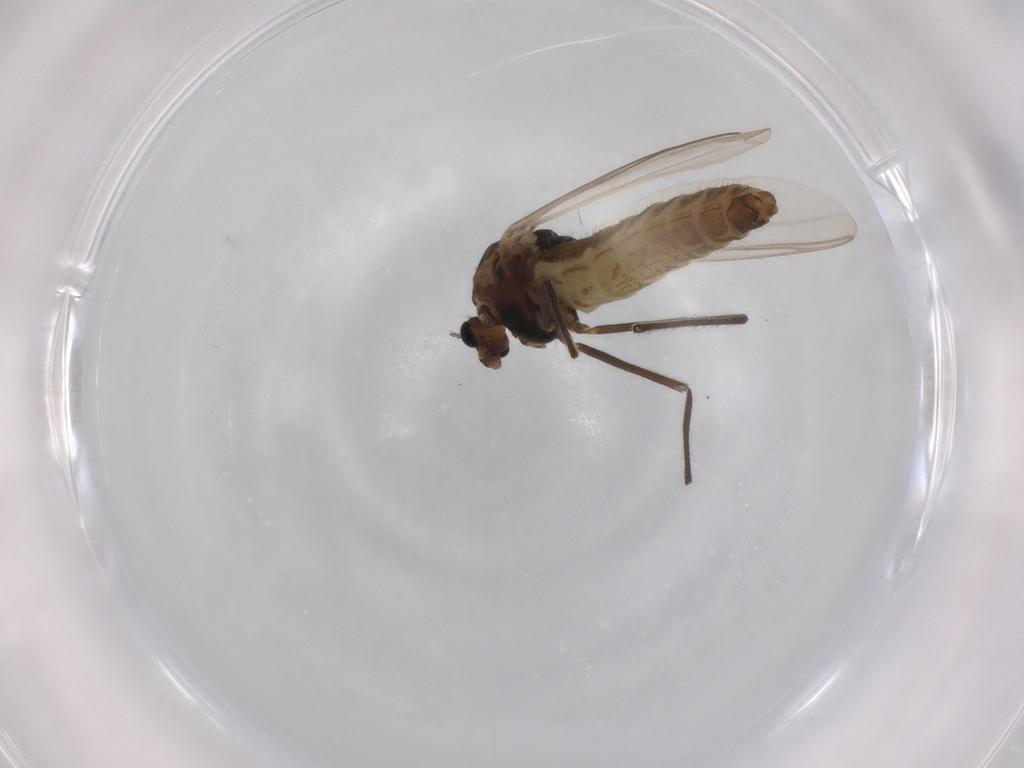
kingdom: Animalia
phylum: Arthropoda
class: Insecta
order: Diptera
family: Chironomidae
